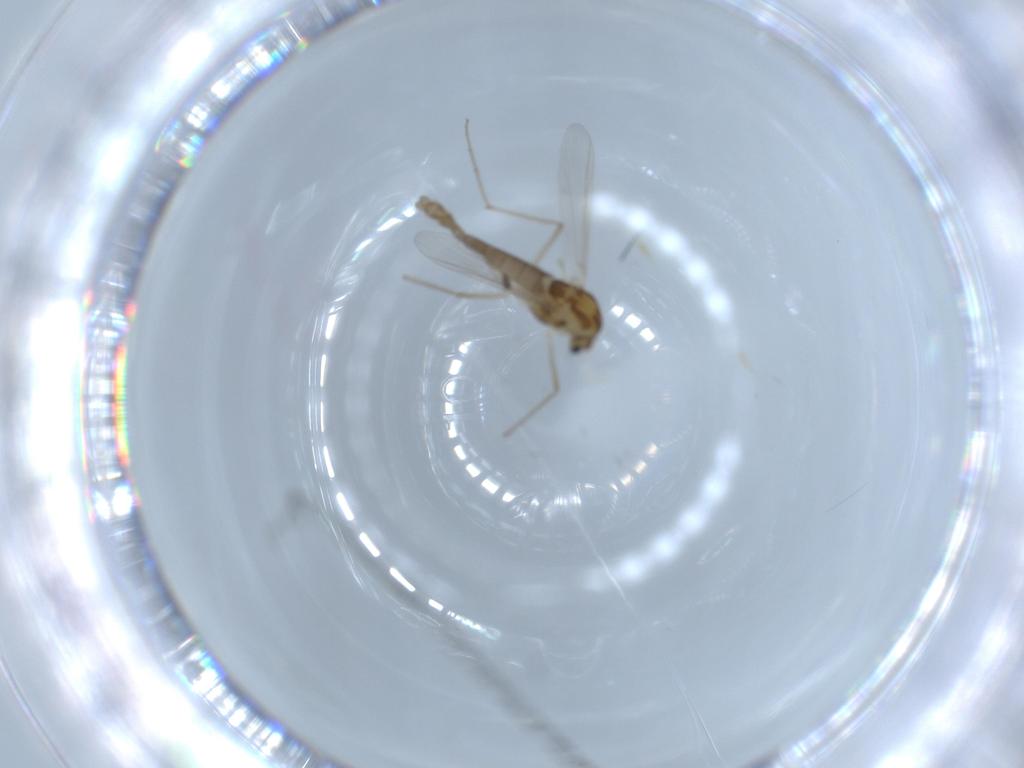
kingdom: Animalia
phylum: Arthropoda
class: Insecta
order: Diptera
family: Chironomidae
